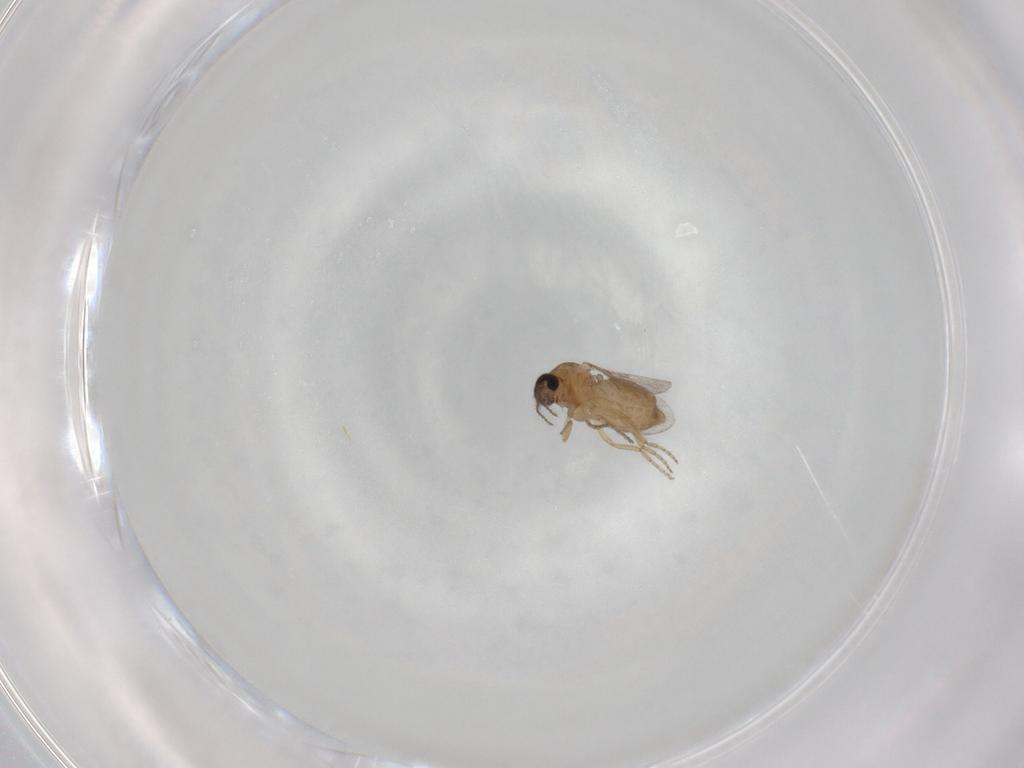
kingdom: Animalia
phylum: Arthropoda
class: Insecta
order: Diptera
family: Ceratopogonidae
